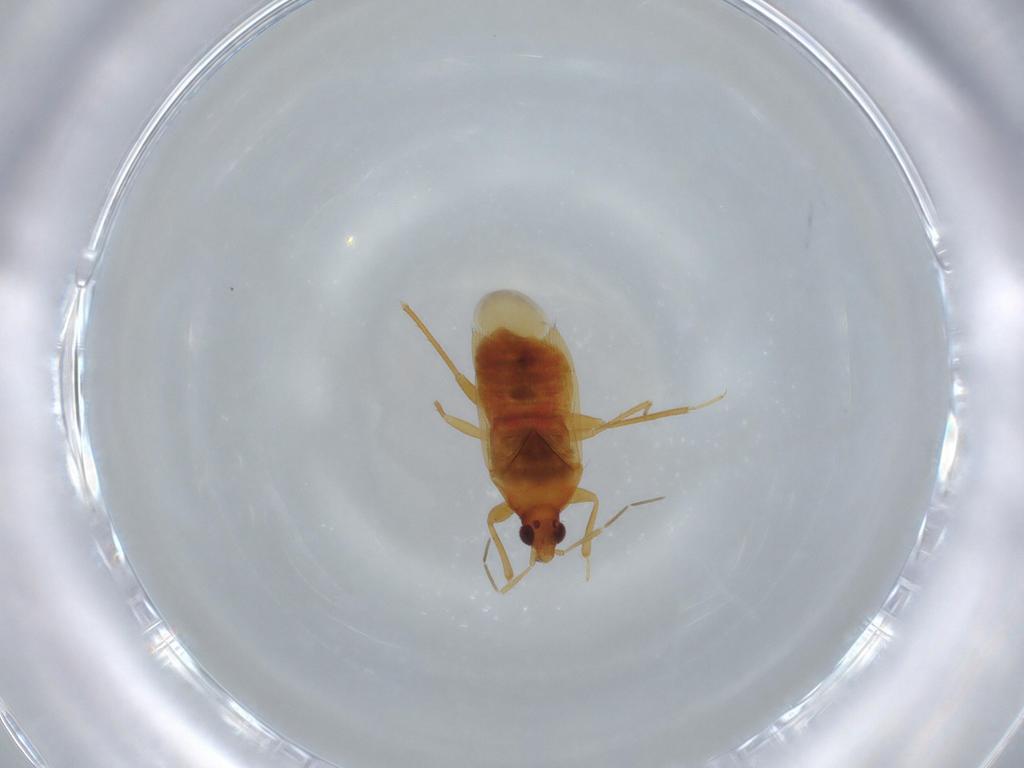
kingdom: Animalia
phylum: Arthropoda
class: Insecta
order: Hemiptera
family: Anthocoridae
